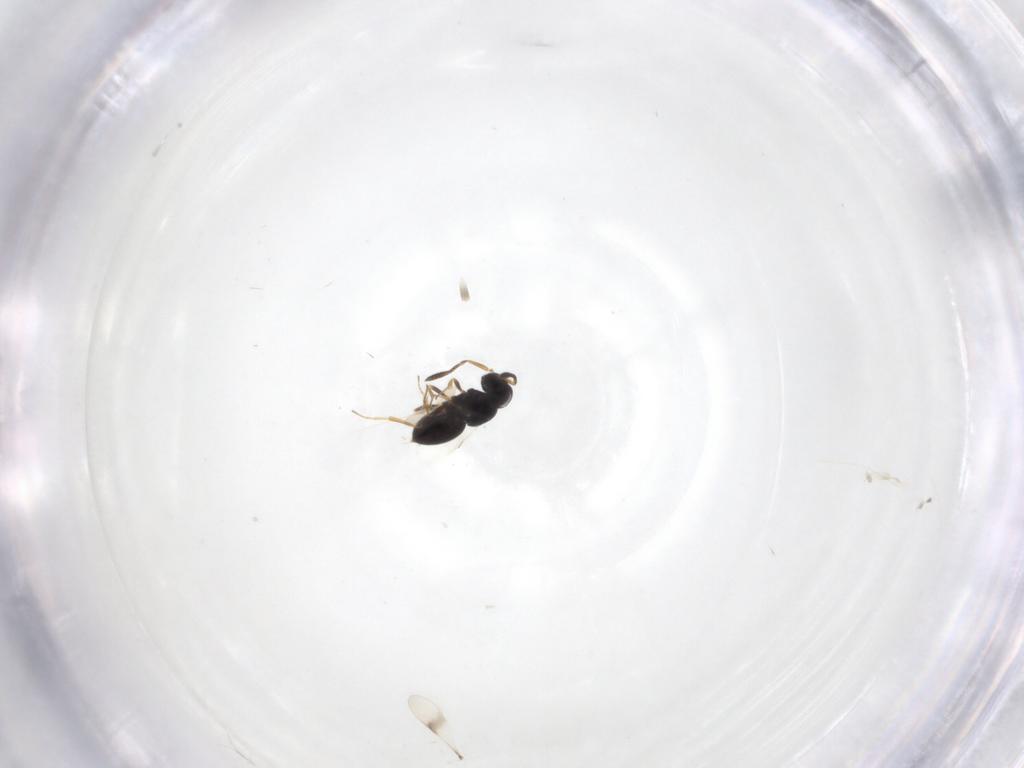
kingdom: Animalia
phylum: Arthropoda
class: Insecta
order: Hymenoptera
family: Scelionidae
